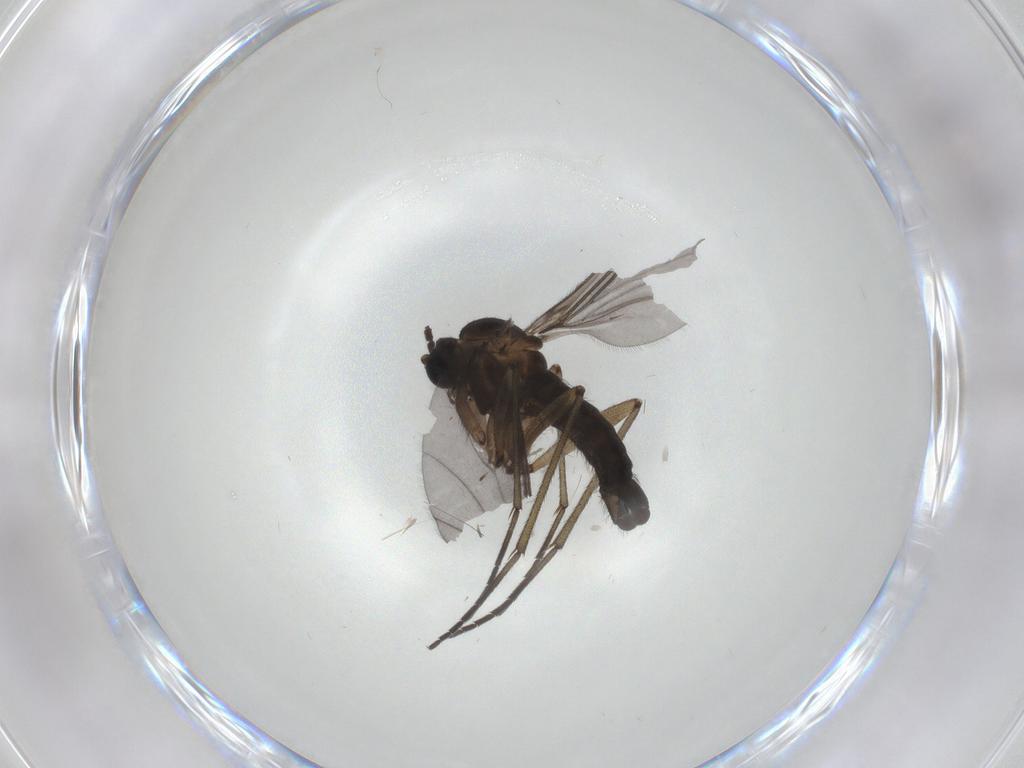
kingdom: Animalia
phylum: Arthropoda
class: Insecta
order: Diptera
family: Sciaridae
